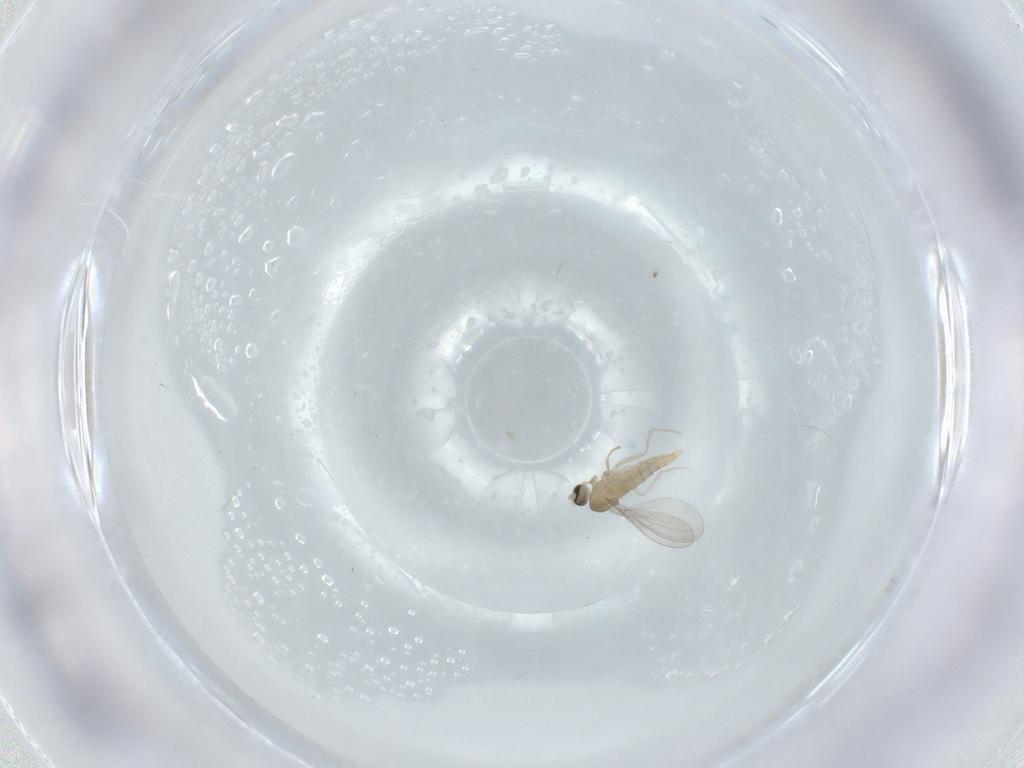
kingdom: Animalia
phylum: Arthropoda
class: Insecta
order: Diptera
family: Cecidomyiidae
